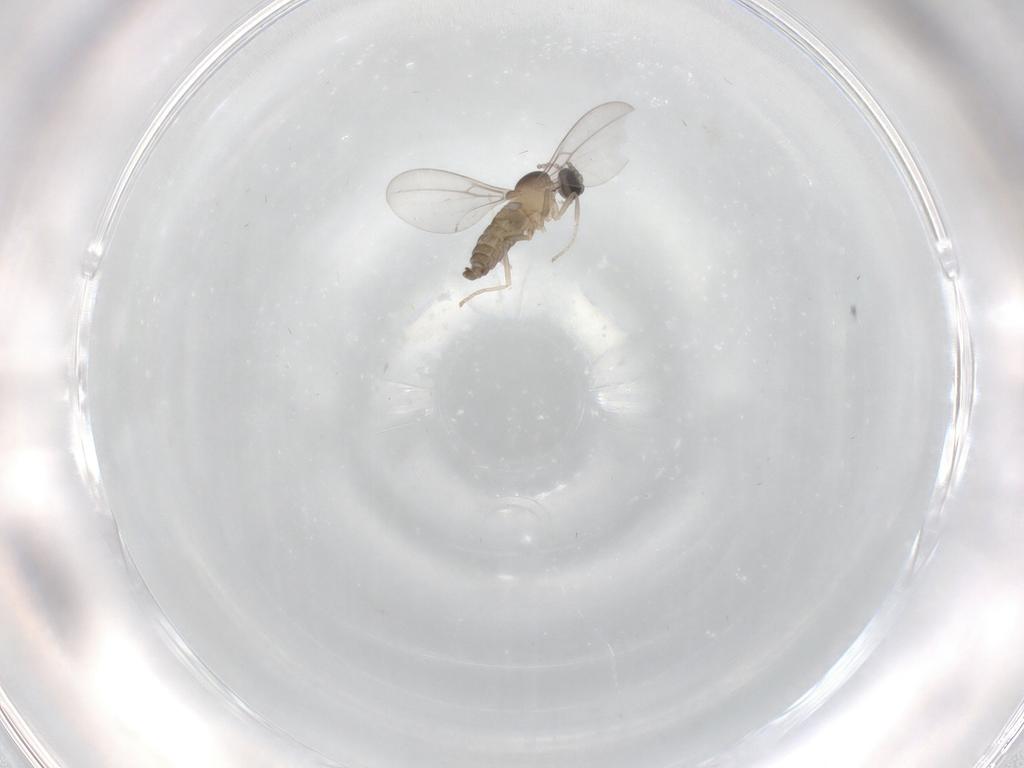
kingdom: Animalia
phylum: Arthropoda
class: Insecta
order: Diptera
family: Cecidomyiidae
